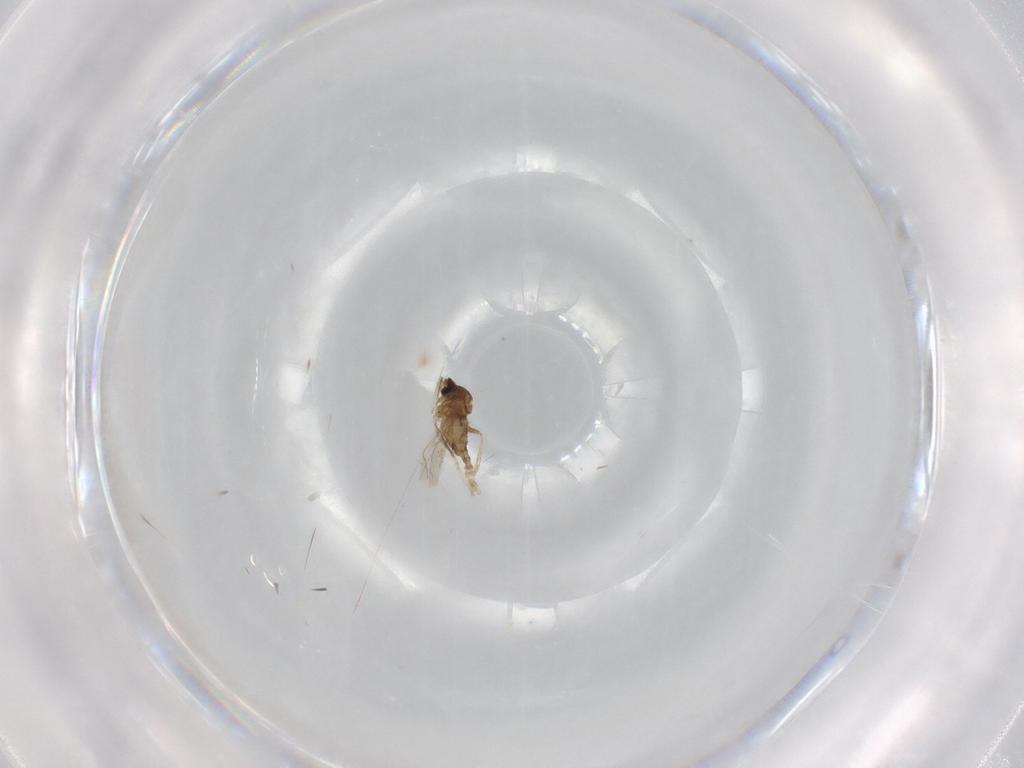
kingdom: Animalia
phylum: Arthropoda
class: Insecta
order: Diptera
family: Cecidomyiidae
